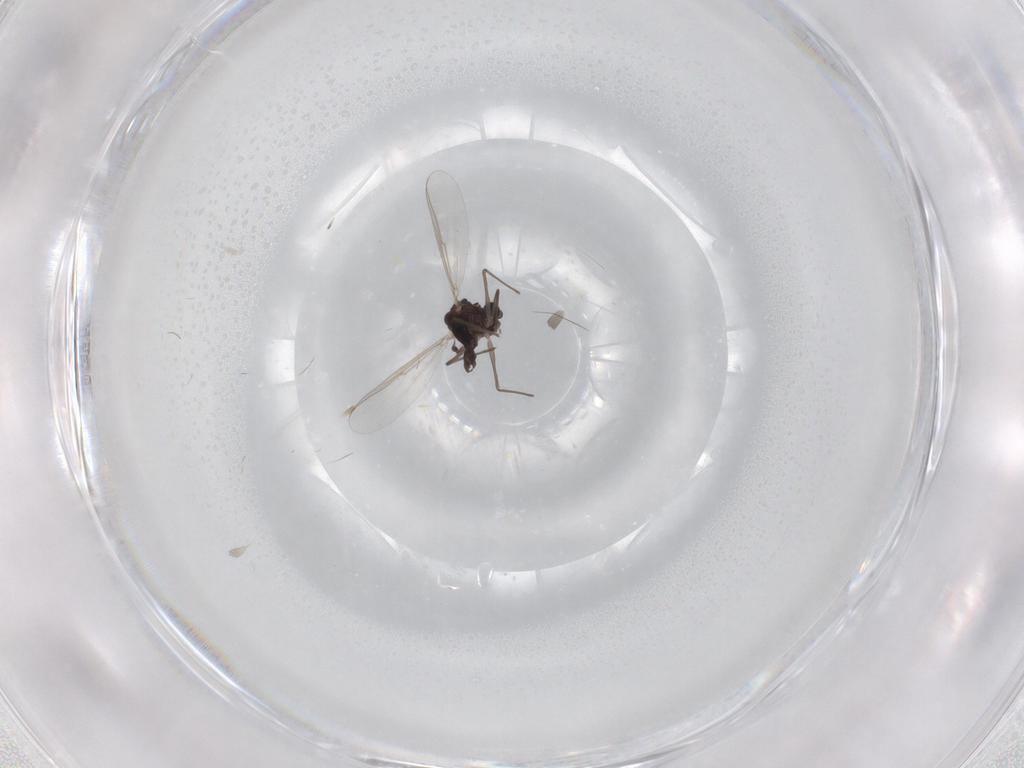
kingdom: Animalia
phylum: Arthropoda
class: Insecta
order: Diptera
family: Chironomidae
